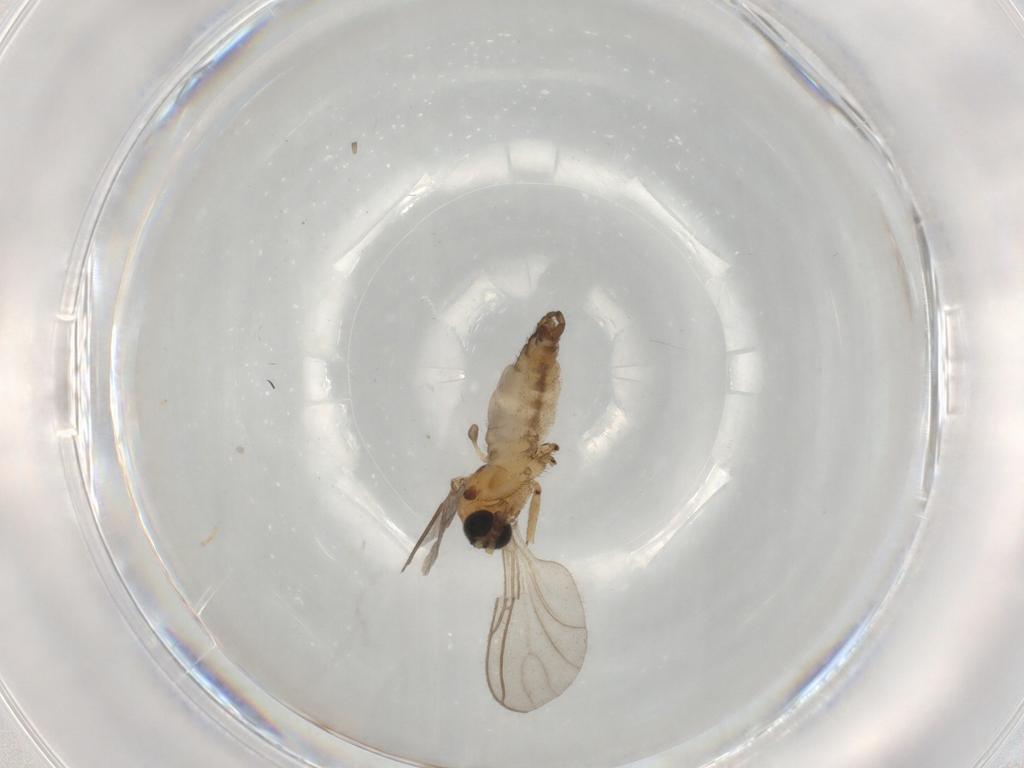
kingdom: Animalia
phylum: Arthropoda
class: Insecta
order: Diptera
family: Sciaridae
